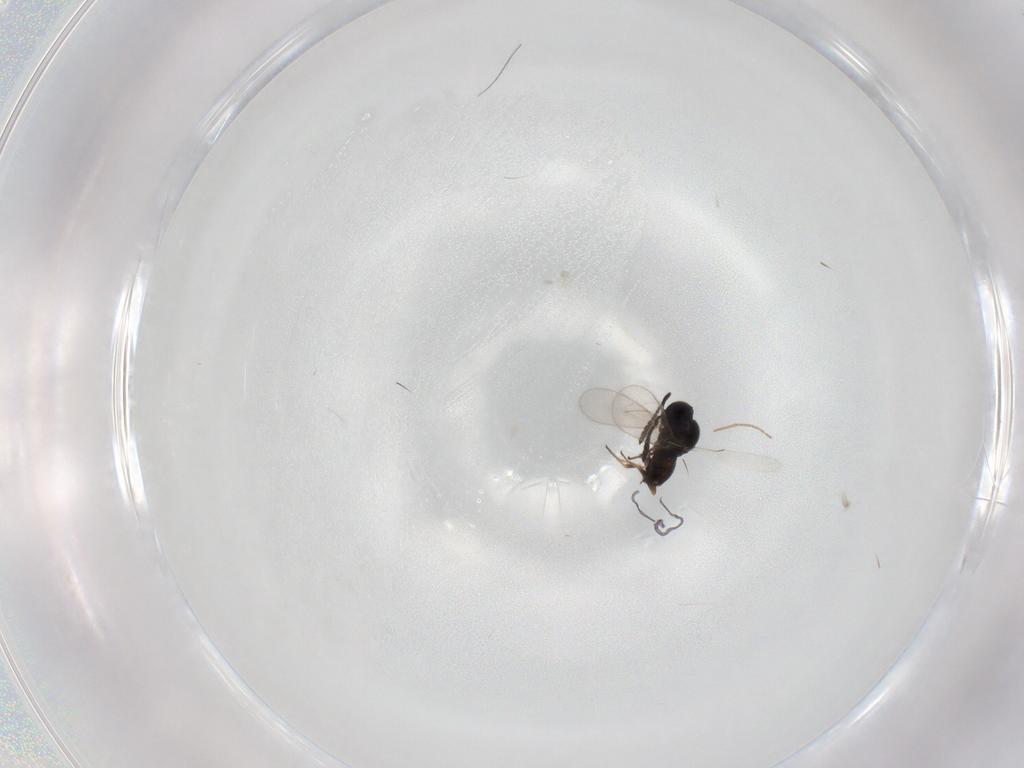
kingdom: Animalia
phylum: Arthropoda
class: Insecta
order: Hymenoptera
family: Scelionidae
